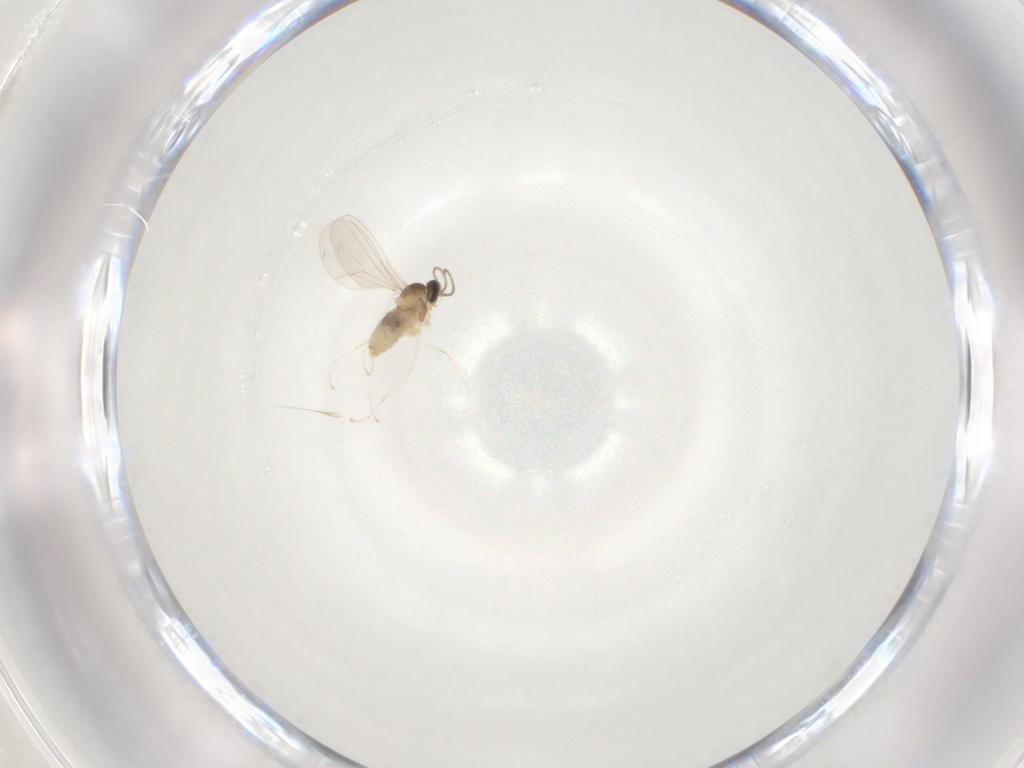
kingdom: Animalia
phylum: Arthropoda
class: Insecta
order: Diptera
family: Cecidomyiidae
